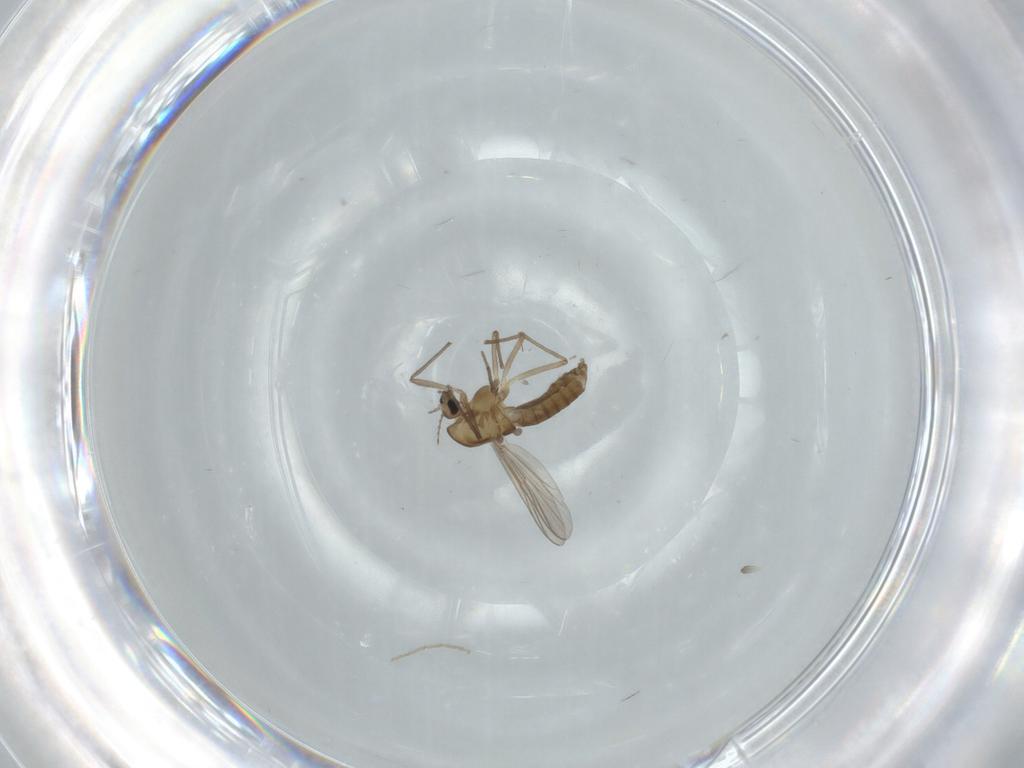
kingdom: Animalia
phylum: Arthropoda
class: Insecta
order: Diptera
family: Chironomidae
